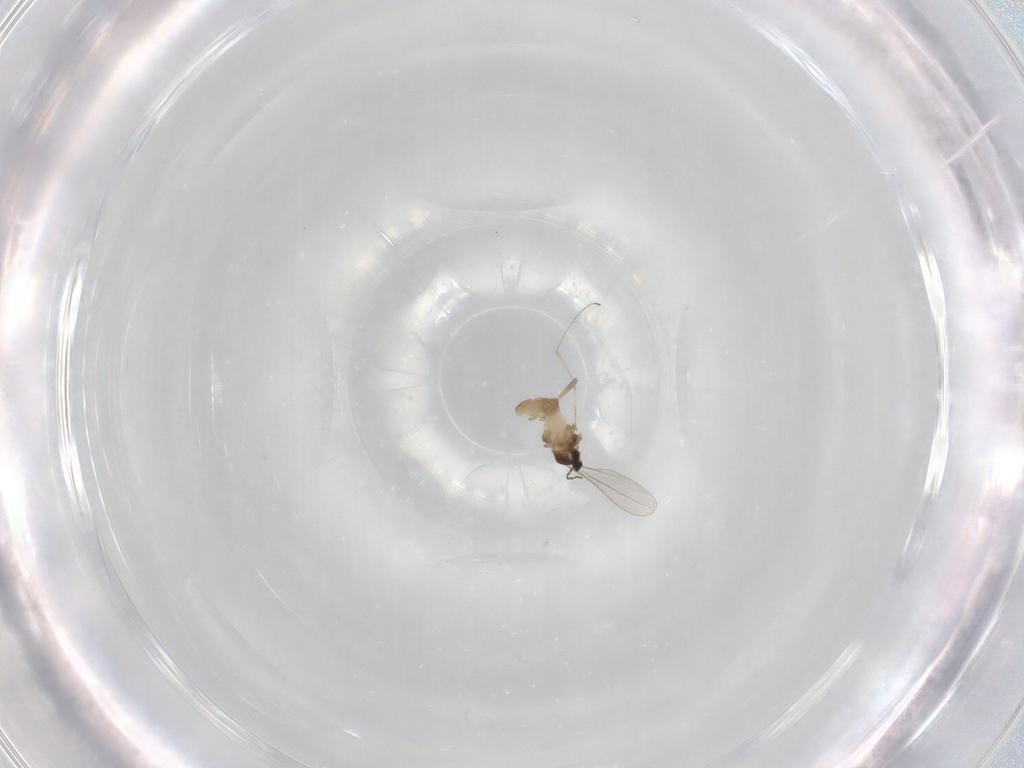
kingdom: Animalia
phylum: Arthropoda
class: Insecta
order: Diptera
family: Cecidomyiidae
